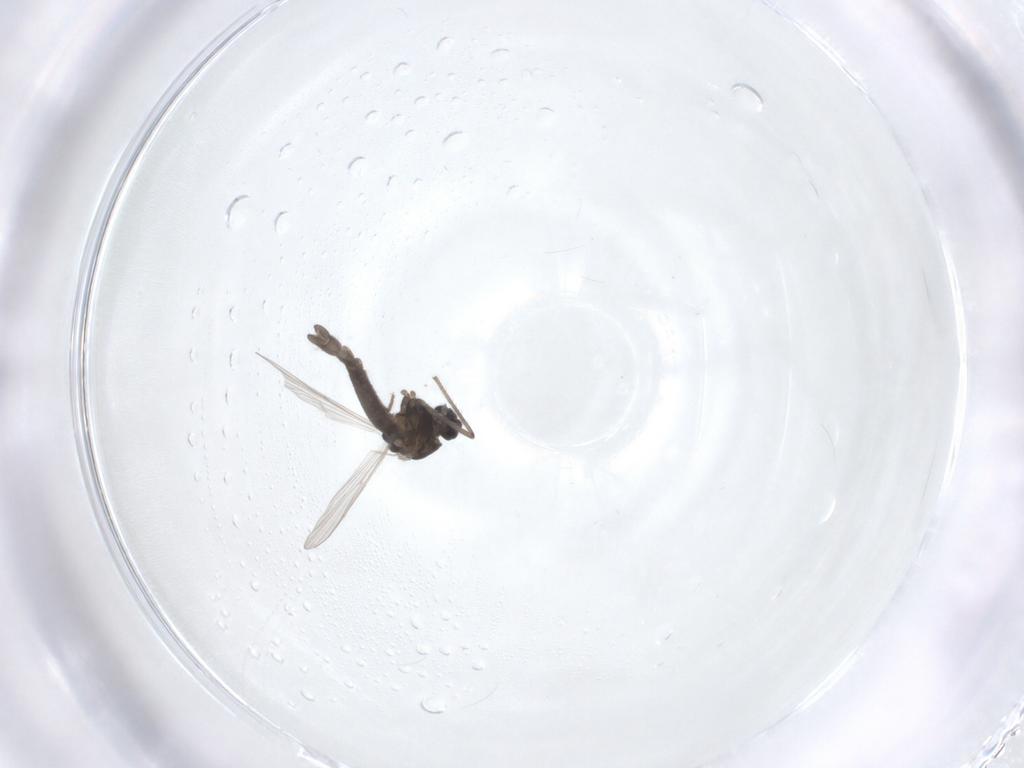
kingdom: Animalia
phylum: Arthropoda
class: Insecta
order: Diptera
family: Chironomidae
